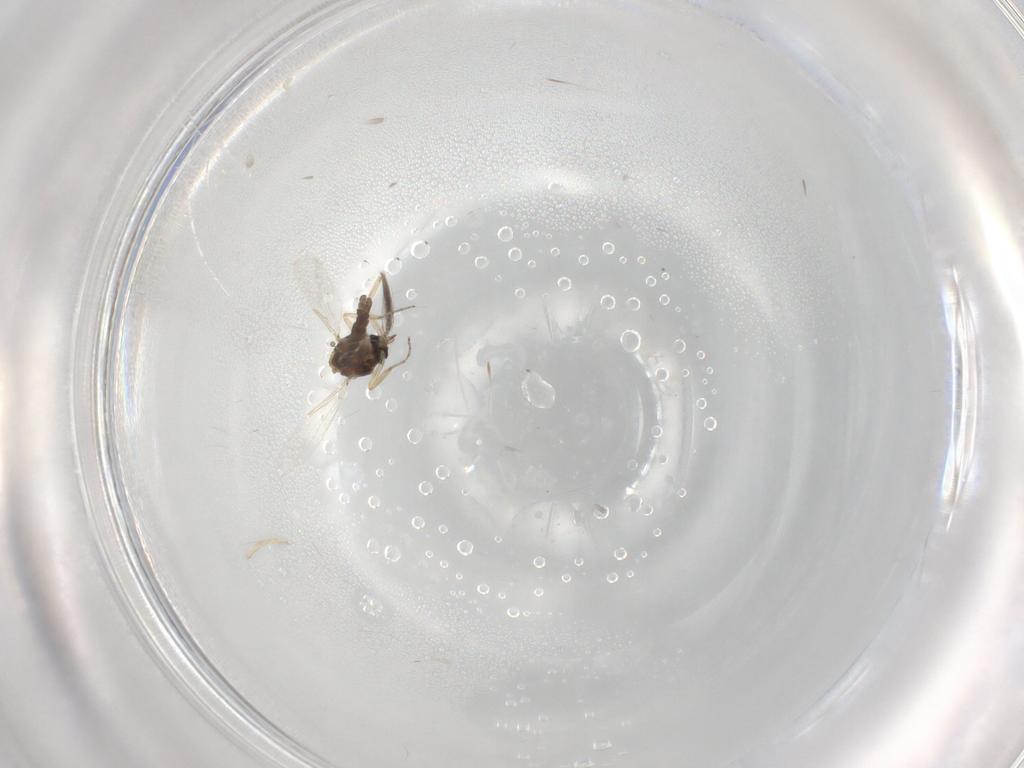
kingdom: Animalia
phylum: Arthropoda
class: Insecta
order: Diptera
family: Ceratopogonidae
